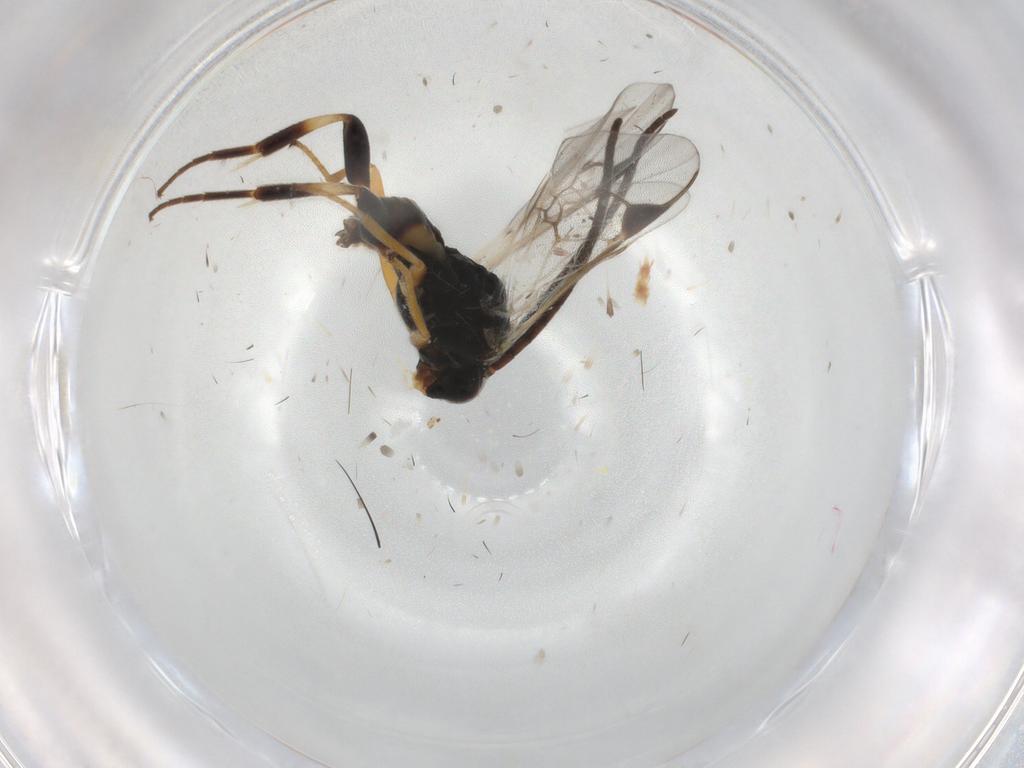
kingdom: Animalia
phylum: Arthropoda
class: Insecta
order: Hymenoptera
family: Braconidae
